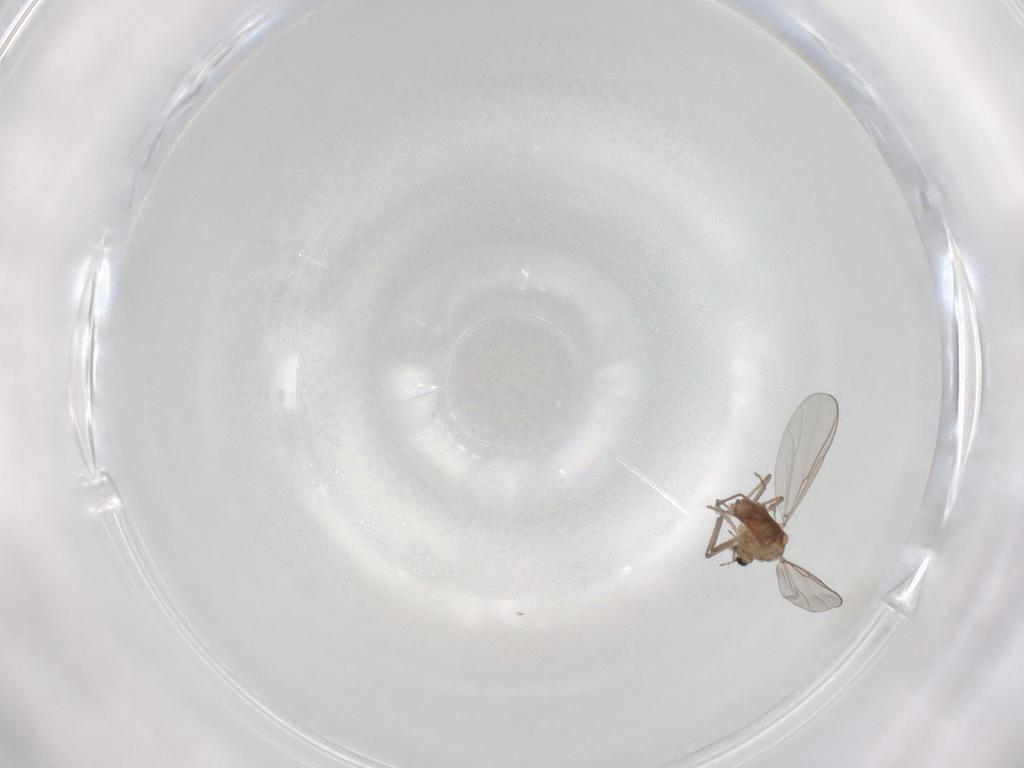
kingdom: Animalia
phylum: Arthropoda
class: Insecta
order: Diptera
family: Chironomidae
